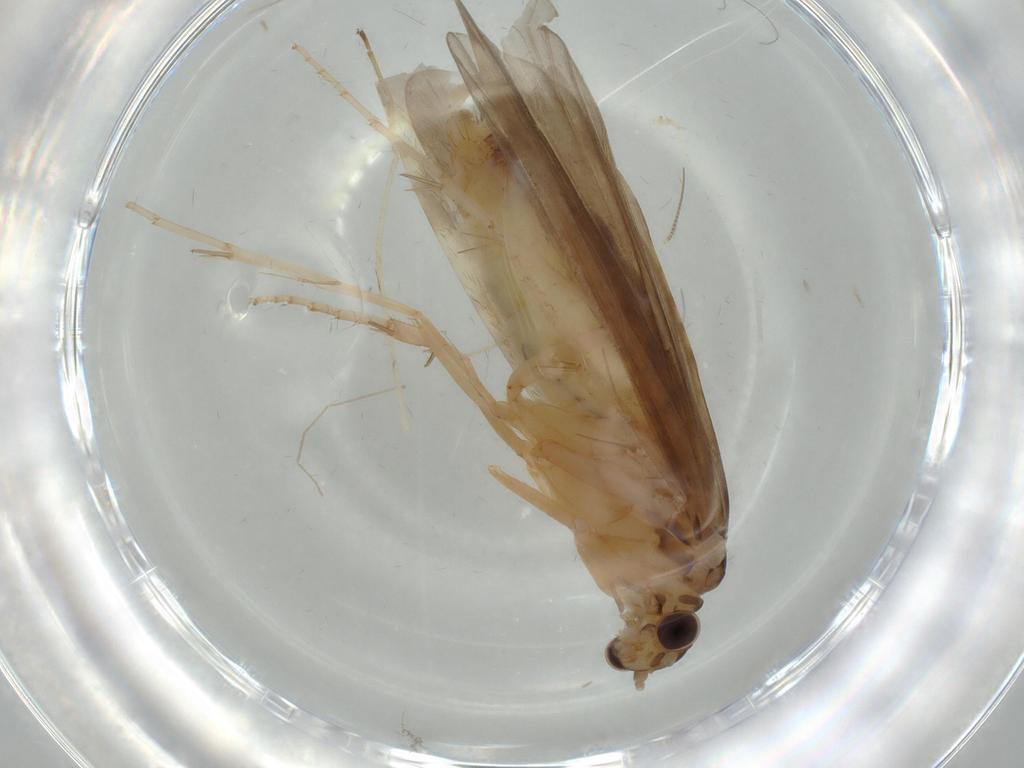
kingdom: Animalia
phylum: Arthropoda
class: Insecta
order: Trichoptera
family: Ecnomidae
